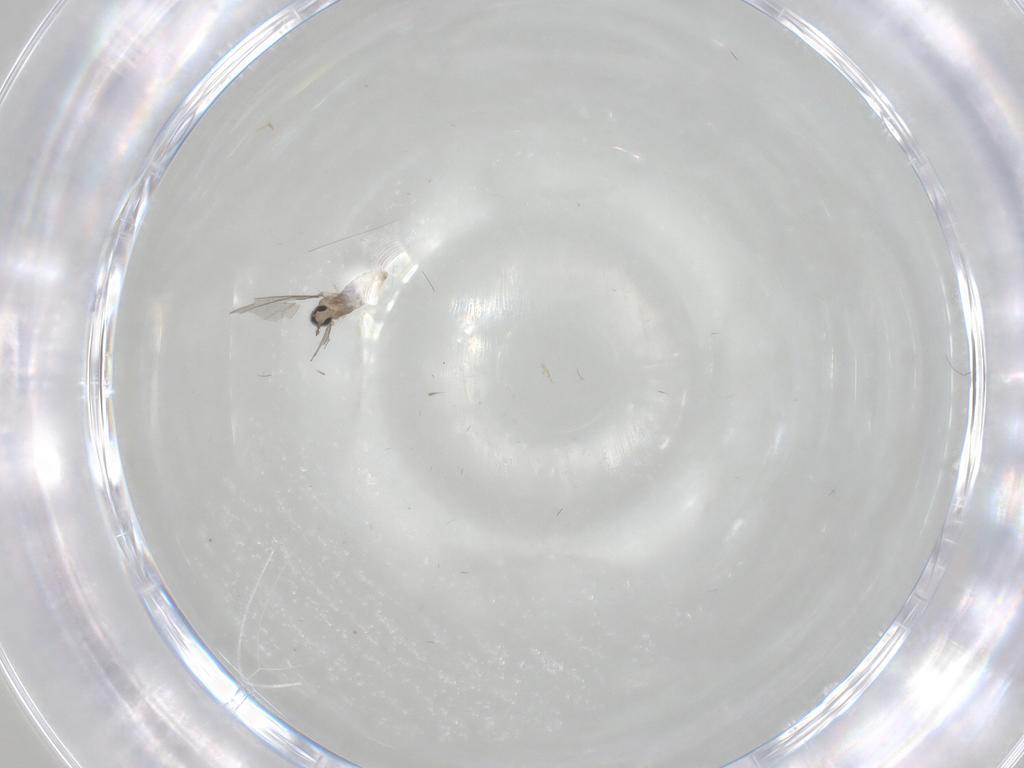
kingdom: Animalia
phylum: Arthropoda
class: Insecta
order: Diptera
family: Cecidomyiidae
